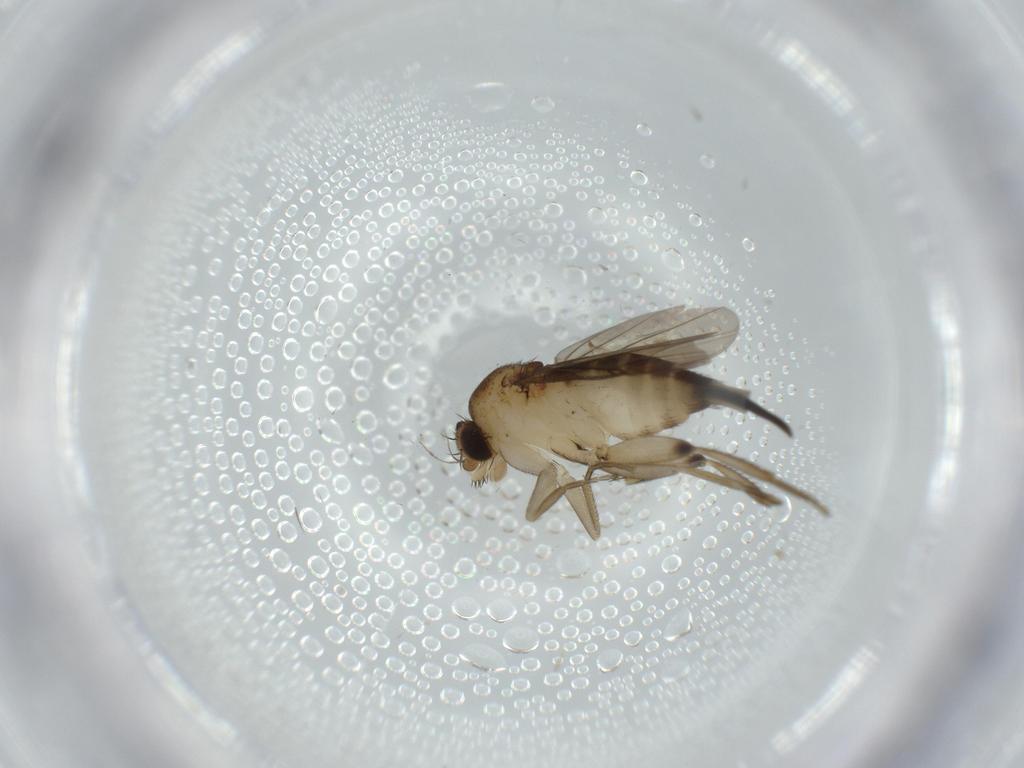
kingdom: Animalia
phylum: Arthropoda
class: Insecta
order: Diptera
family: Phoridae
